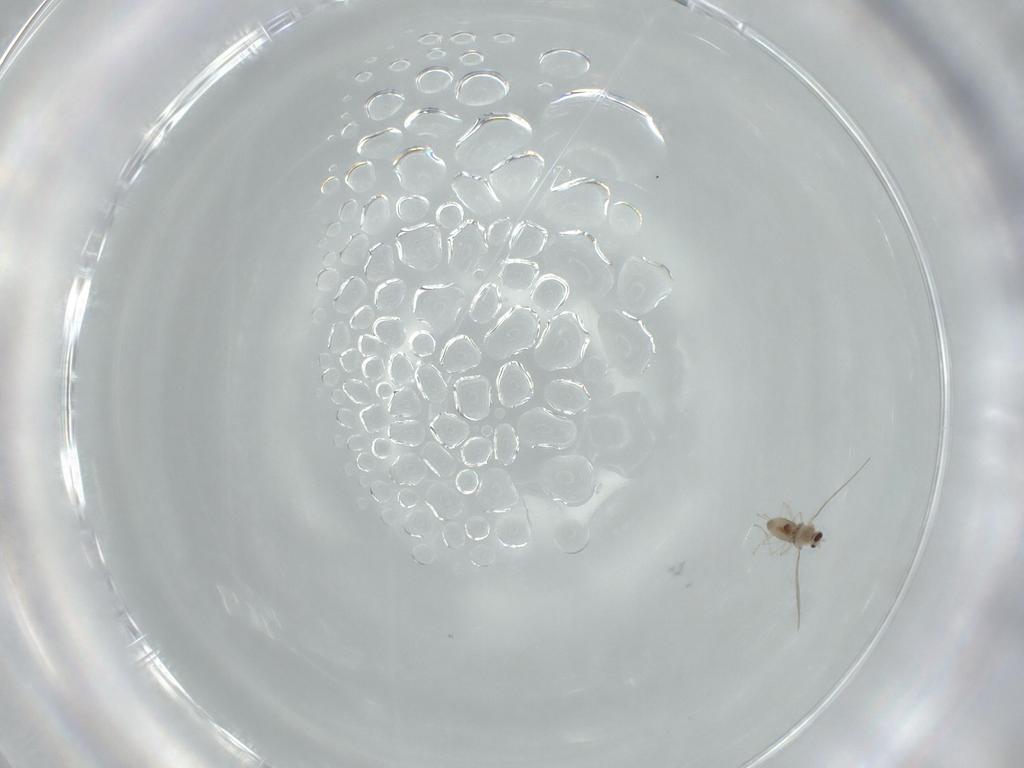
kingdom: Animalia
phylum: Arthropoda
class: Insecta
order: Diptera
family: Cecidomyiidae
